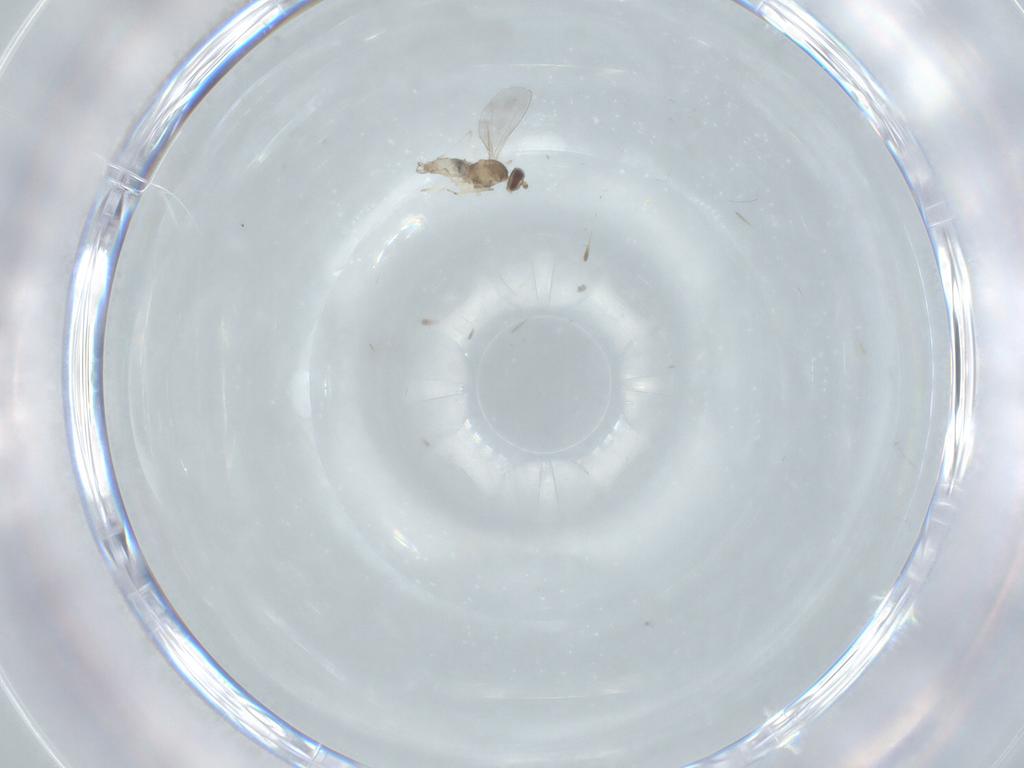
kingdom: Animalia
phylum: Arthropoda
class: Insecta
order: Diptera
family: Cecidomyiidae
